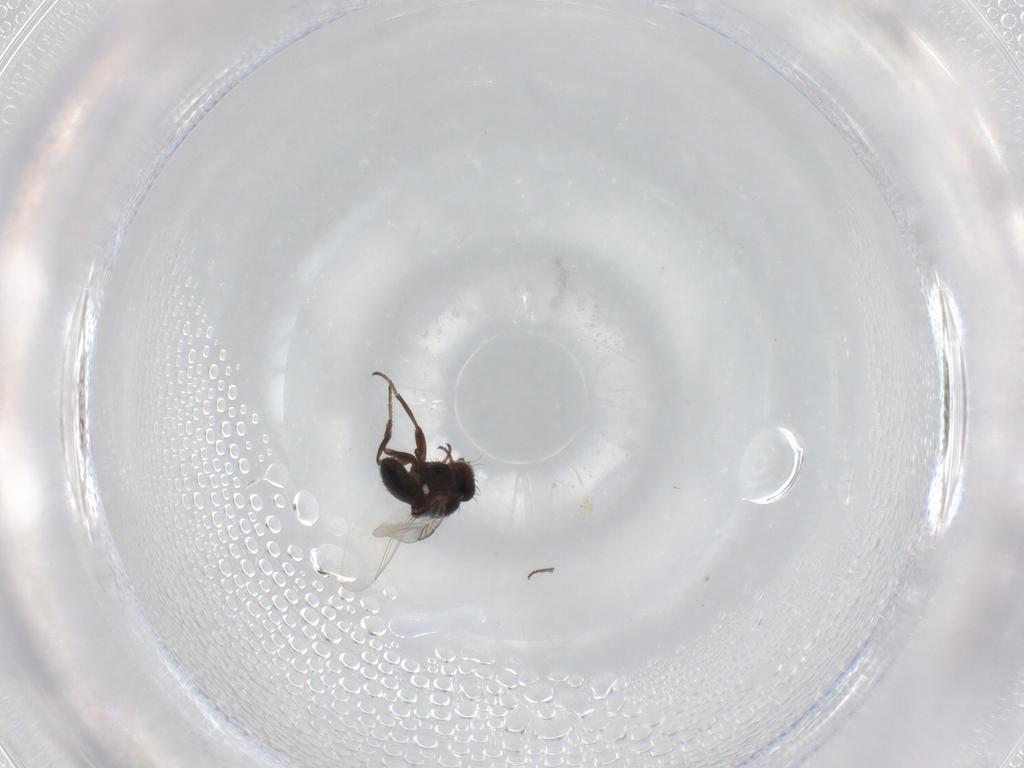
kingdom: Animalia
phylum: Arthropoda
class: Insecta
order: Diptera
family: Agromyzidae
